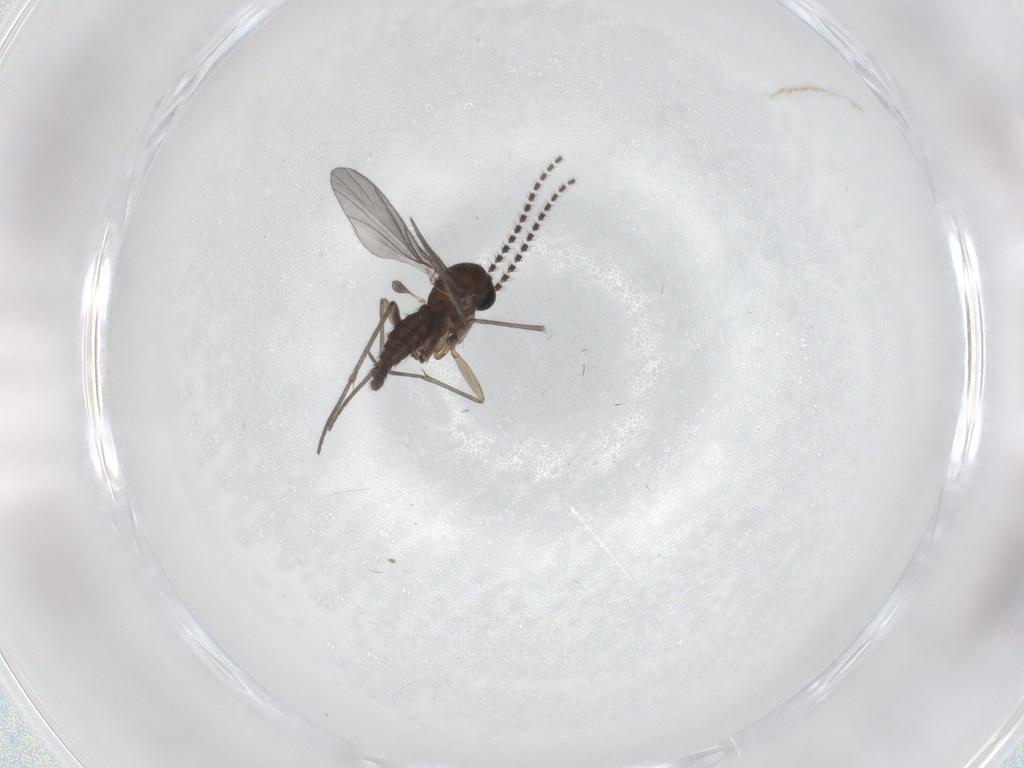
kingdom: Animalia
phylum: Arthropoda
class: Insecta
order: Diptera
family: Sciaridae
